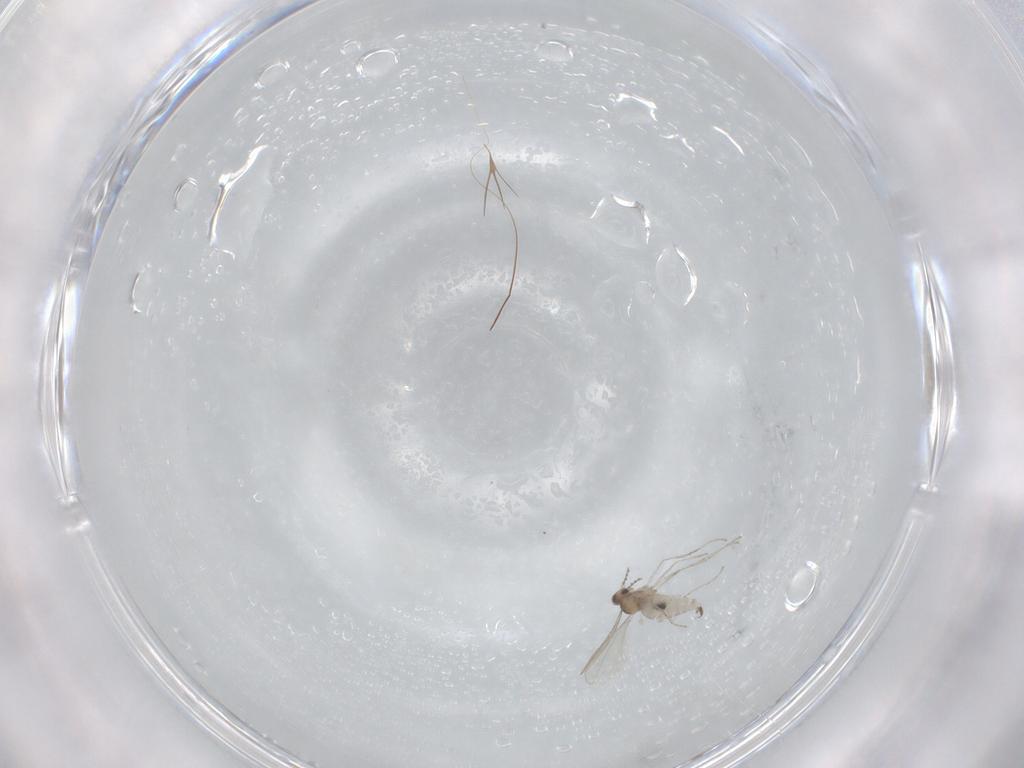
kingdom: Animalia
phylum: Arthropoda
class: Insecta
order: Diptera
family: Cecidomyiidae
